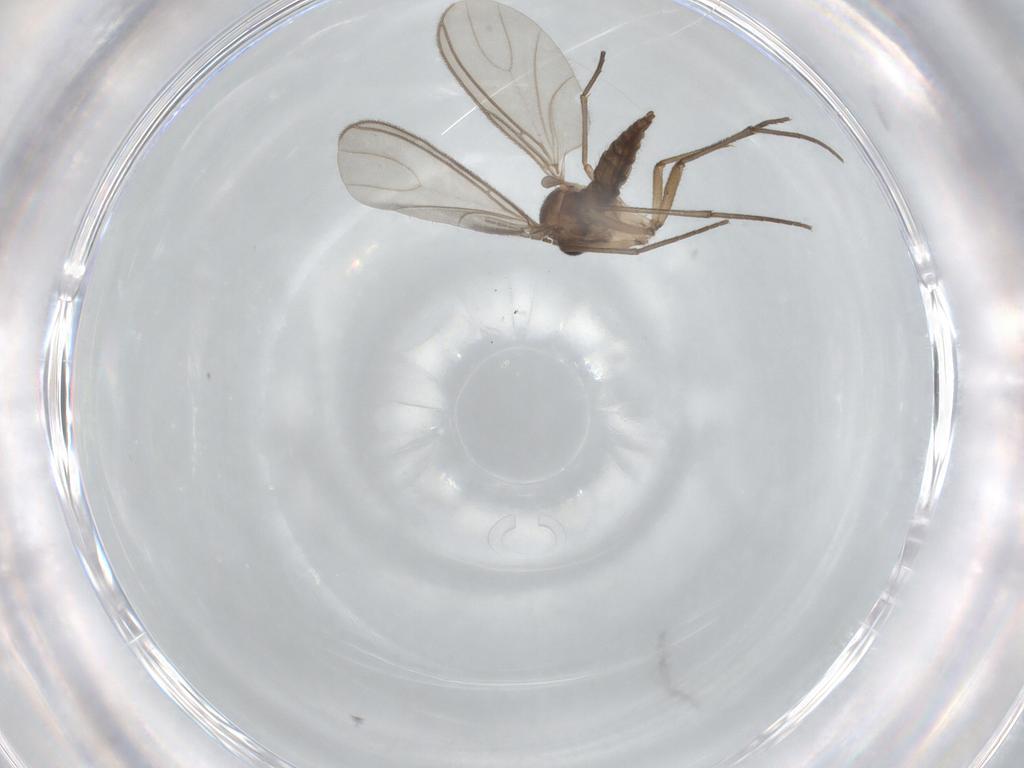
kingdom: Animalia
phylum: Arthropoda
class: Insecta
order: Diptera
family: Sciaridae
